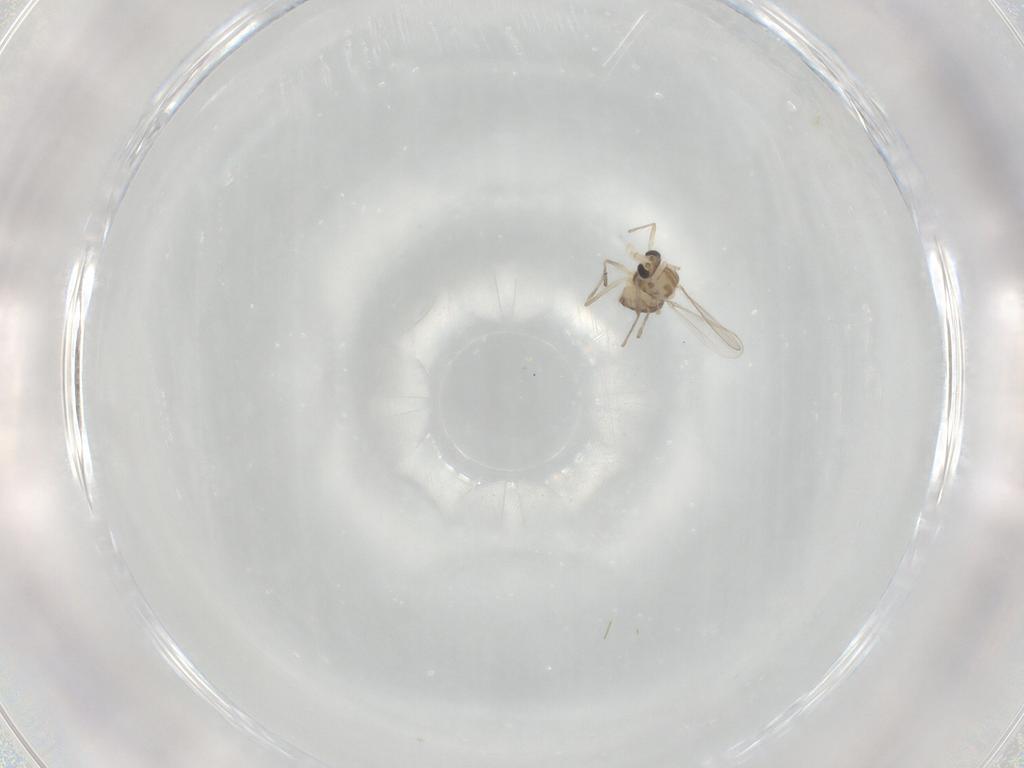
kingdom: Animalia
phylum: Arthropoda
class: Insecta
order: Diptera
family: Chironomidae
